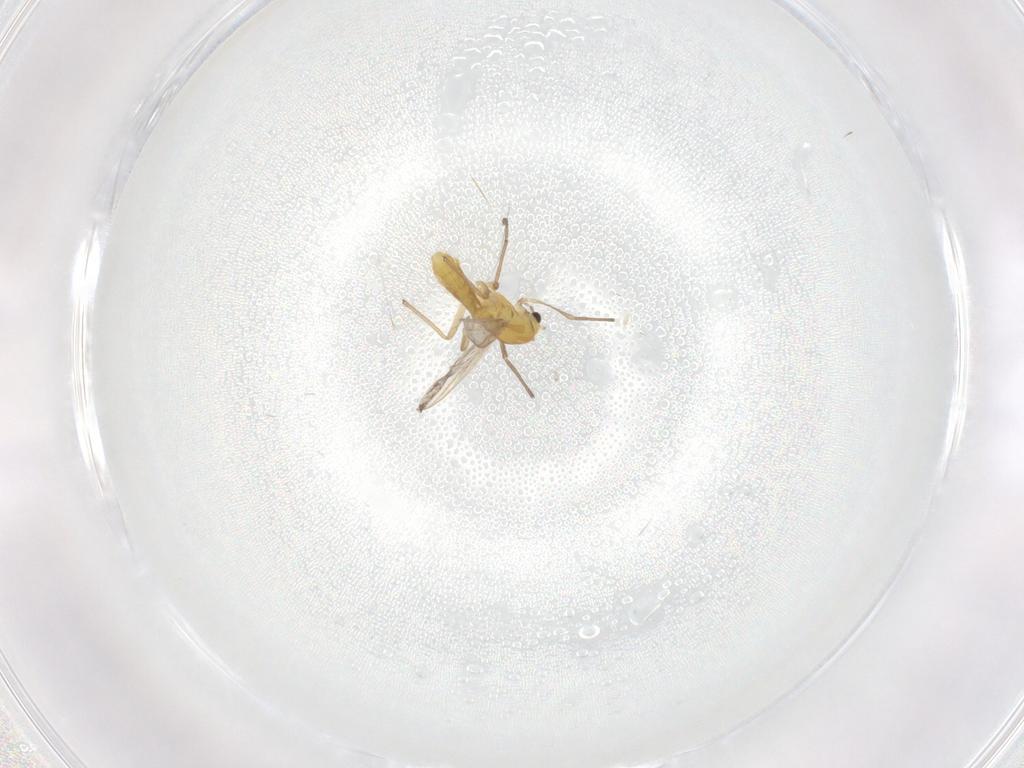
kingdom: Animalia
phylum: Arthropoda
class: Insecta
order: Diptera
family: Chironomidae
